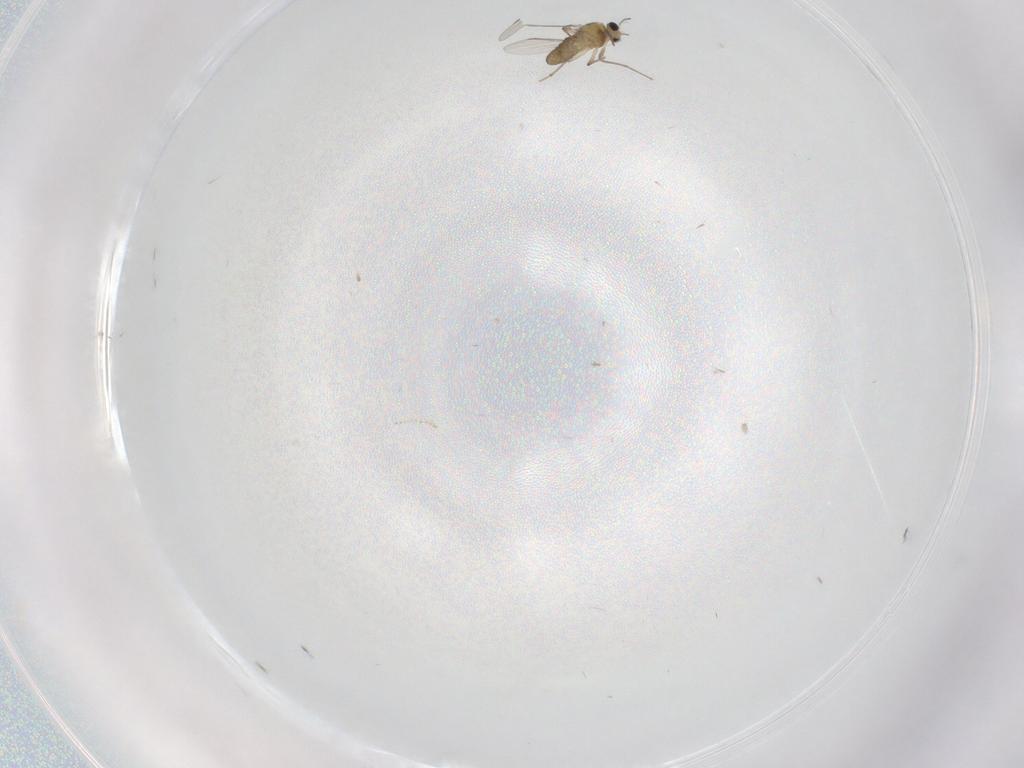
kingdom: Animalia
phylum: Arthropoda
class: Insecta
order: Diptera
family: Chironomidae
